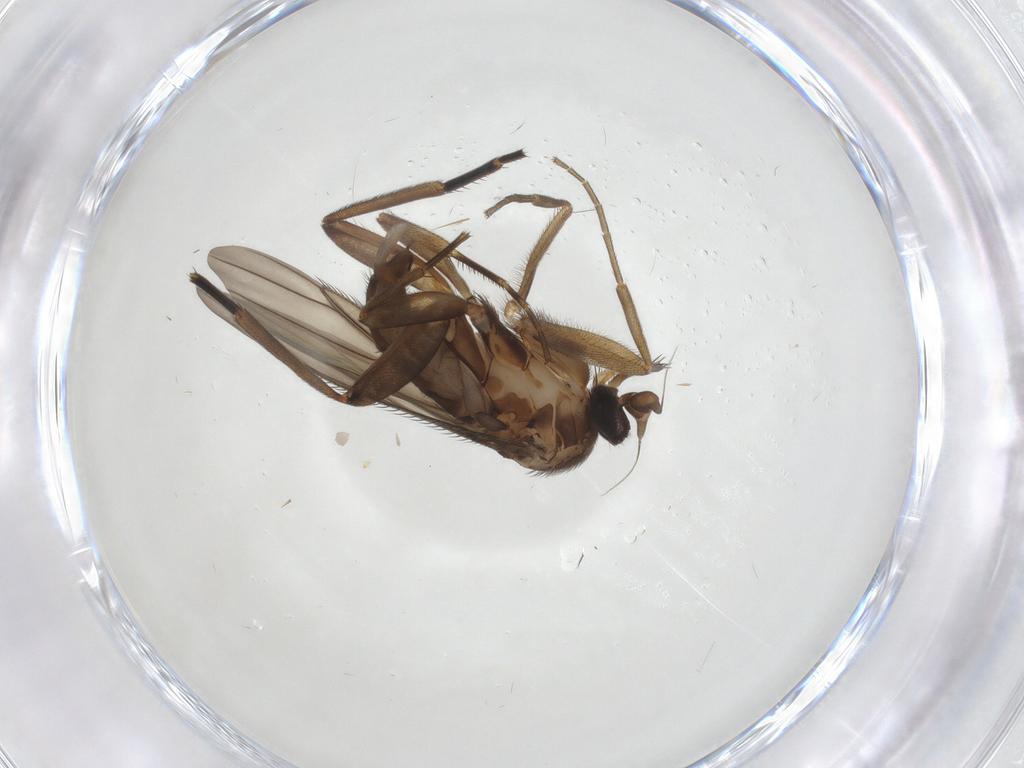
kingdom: Animalia
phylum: Arthropoda
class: Insecta
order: Diptera
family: Phoridae
